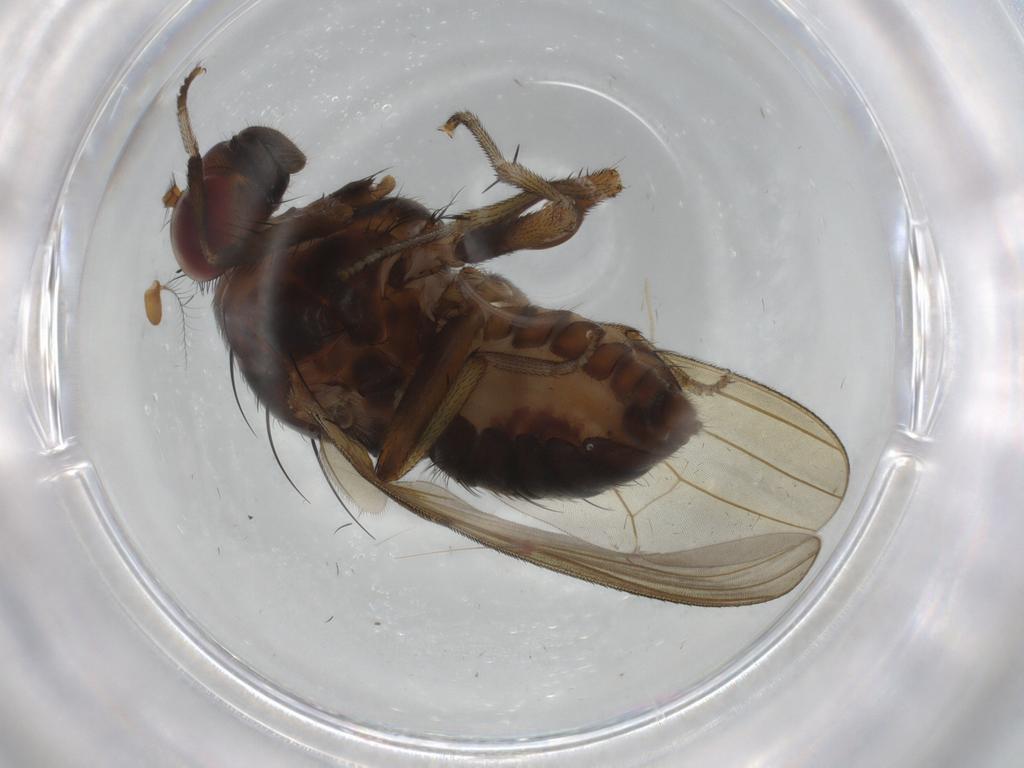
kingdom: Animalia
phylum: Arthropoda
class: Insecta
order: Diptera
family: Chironomidae
